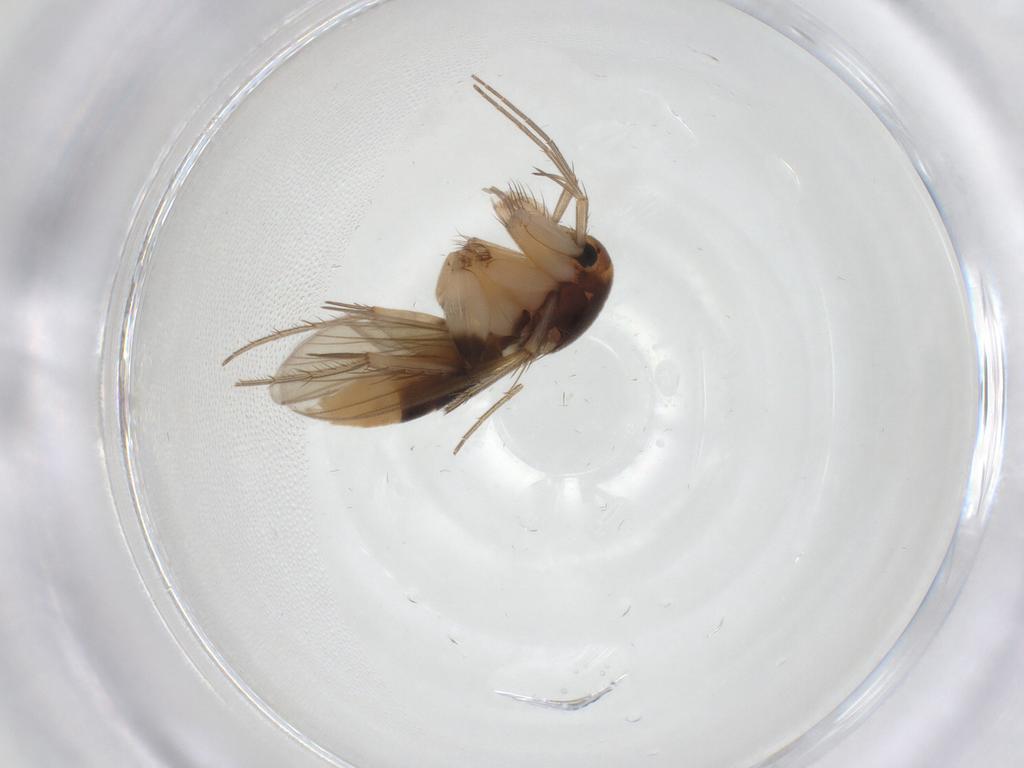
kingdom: Animalia
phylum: Arthropoda
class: Insecta
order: Diptera
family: Mycetophilidae
